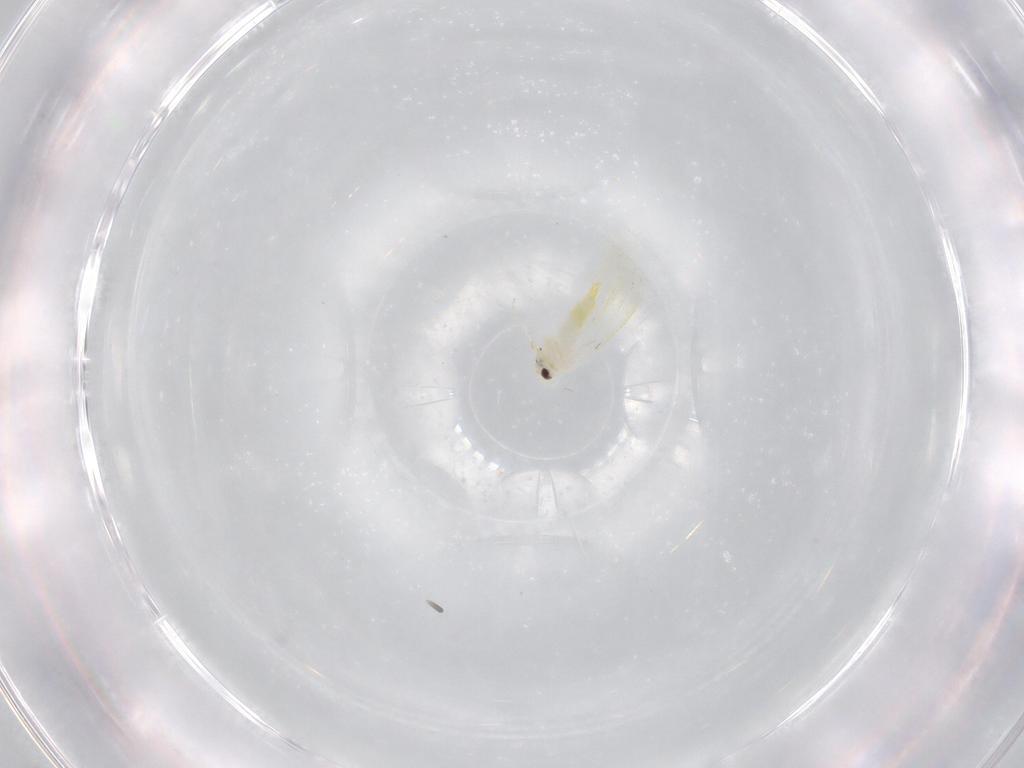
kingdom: Animalia
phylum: Arthropoda
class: Insecta
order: Hemiptera
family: Aleyrodidae
